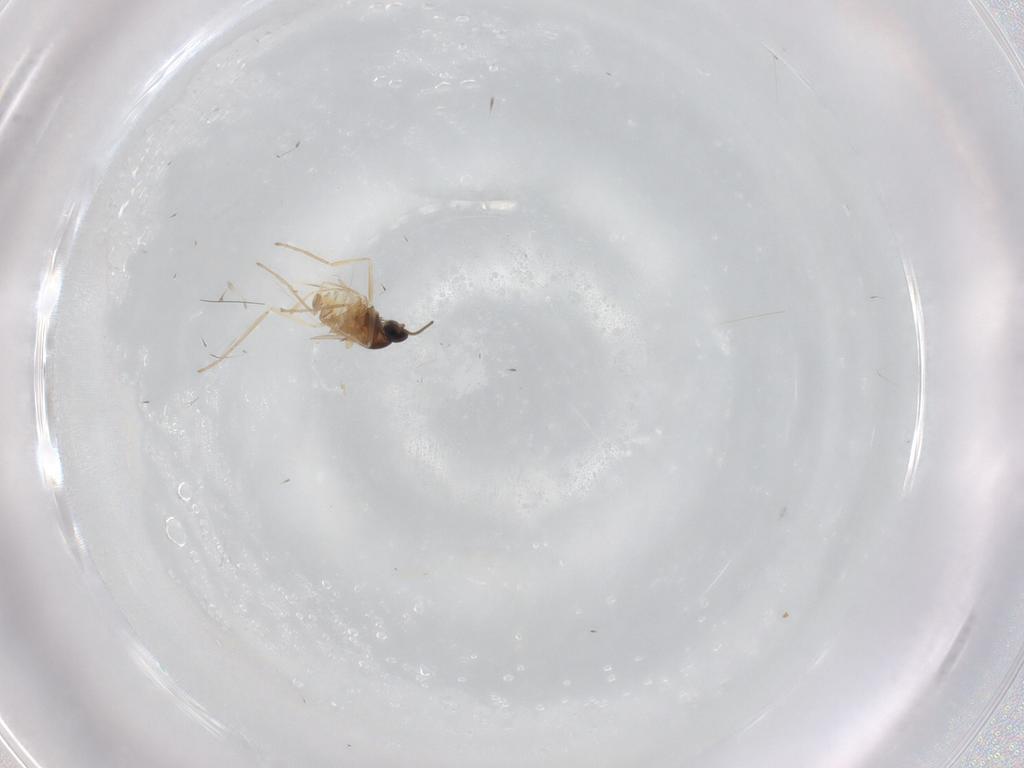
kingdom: Animalia
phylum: Arthropoda
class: Insecta
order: Diptera
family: Cecidomyiidae
